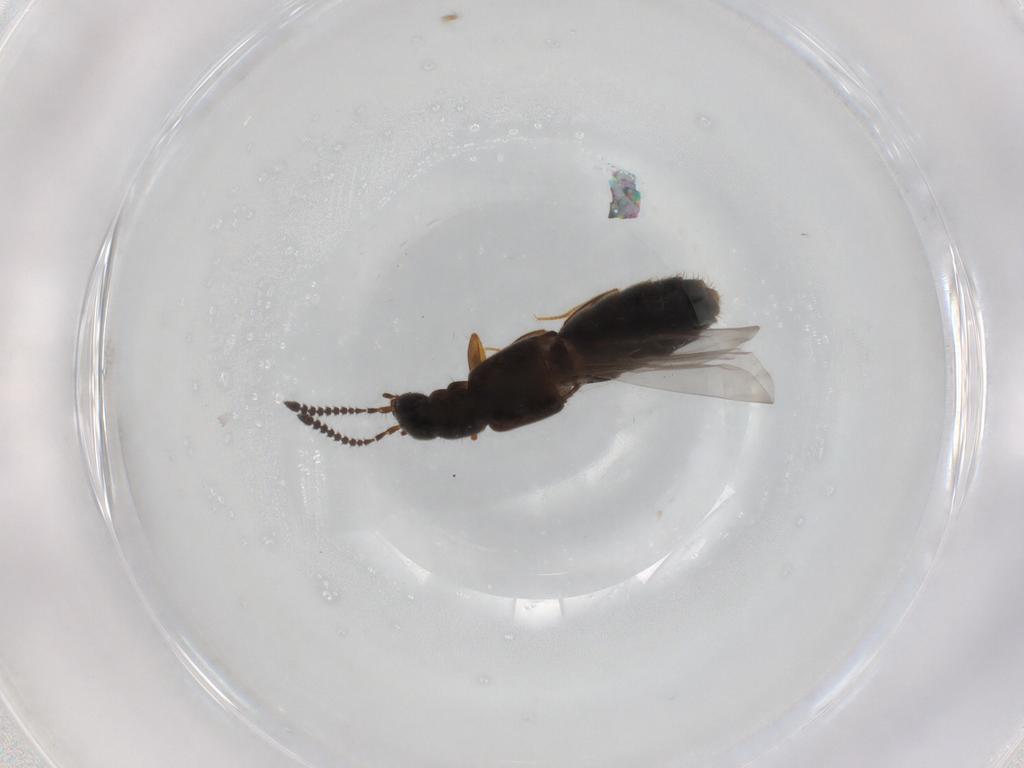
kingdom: Animalia
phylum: Arthropoda
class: Insecta
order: Coleoptera
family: Staphylinidae
